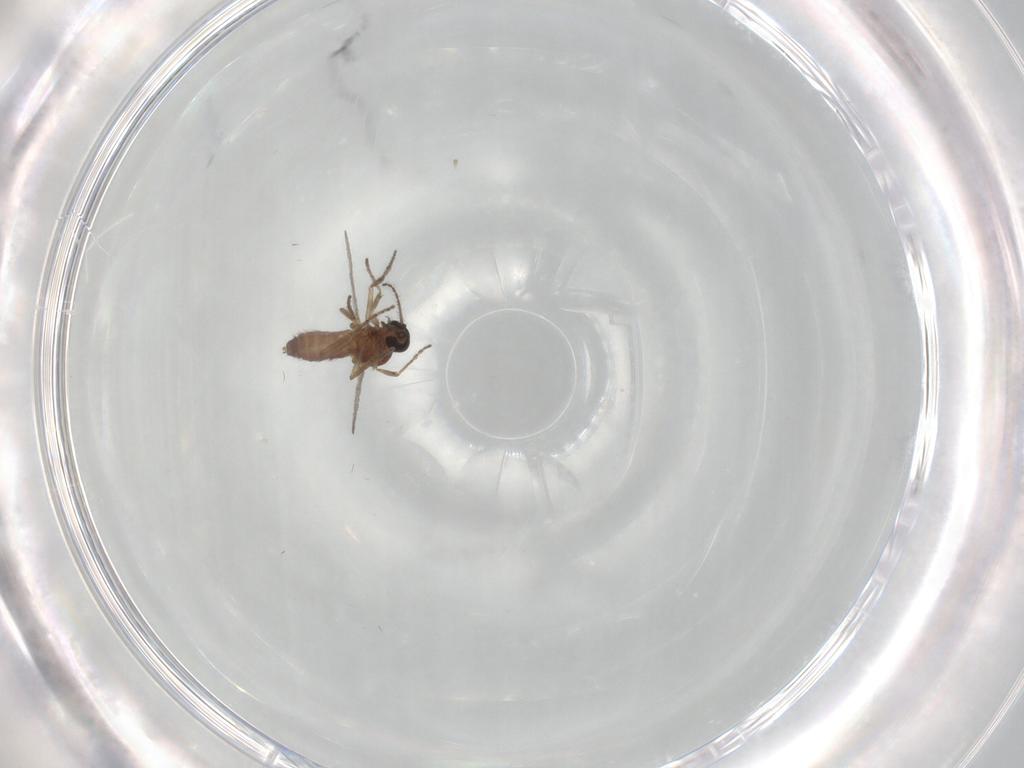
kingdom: Animalia
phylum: Arthropoda
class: Insecta
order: Diptera
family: Ceratopogonidae
